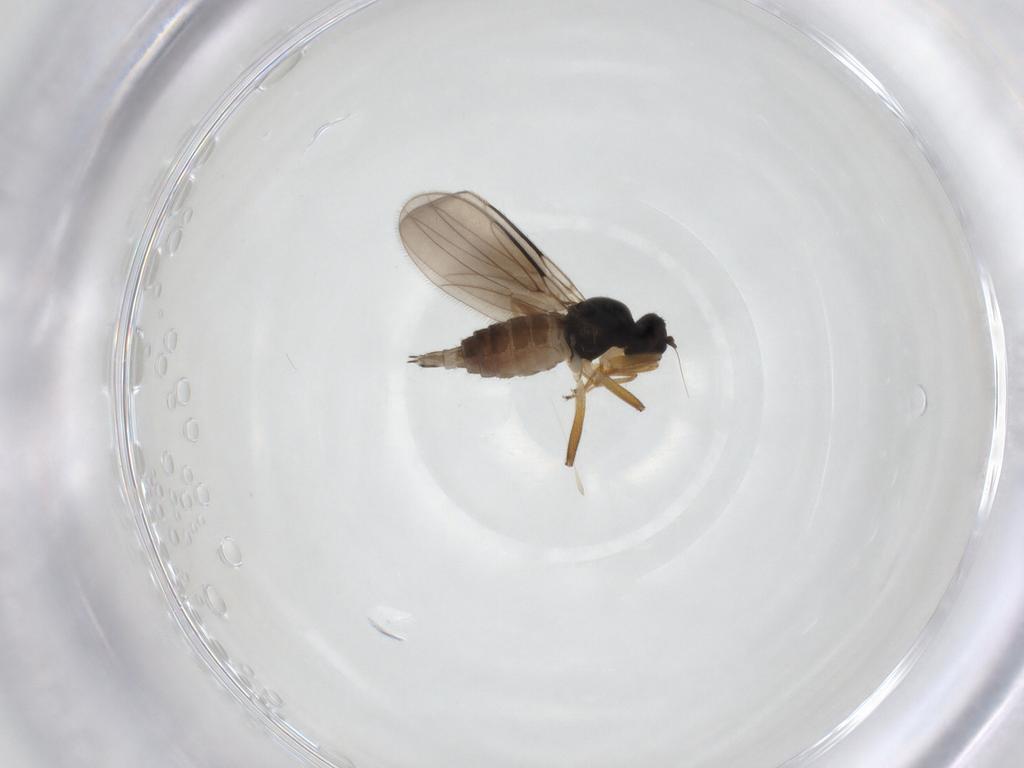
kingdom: Animalia
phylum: Arthropoda
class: Insecta
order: Diptera
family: Hybotidae
